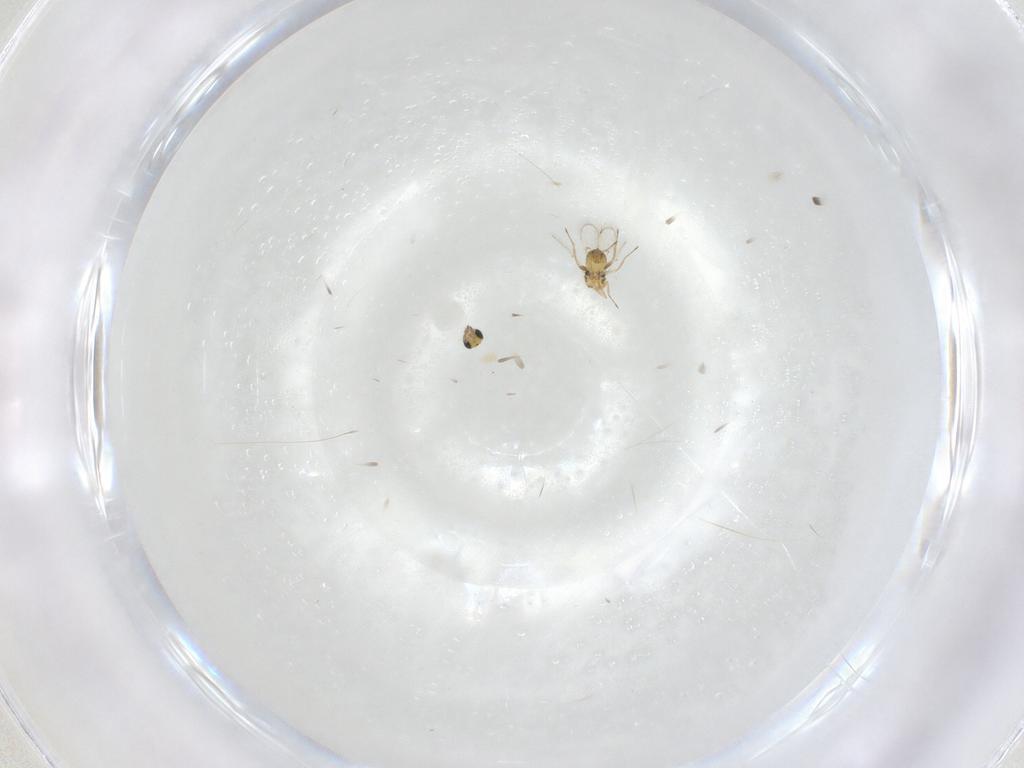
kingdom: Animalia
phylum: Arthropoda
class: Insecta
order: Hymenoptera
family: Trichogrammatidae
